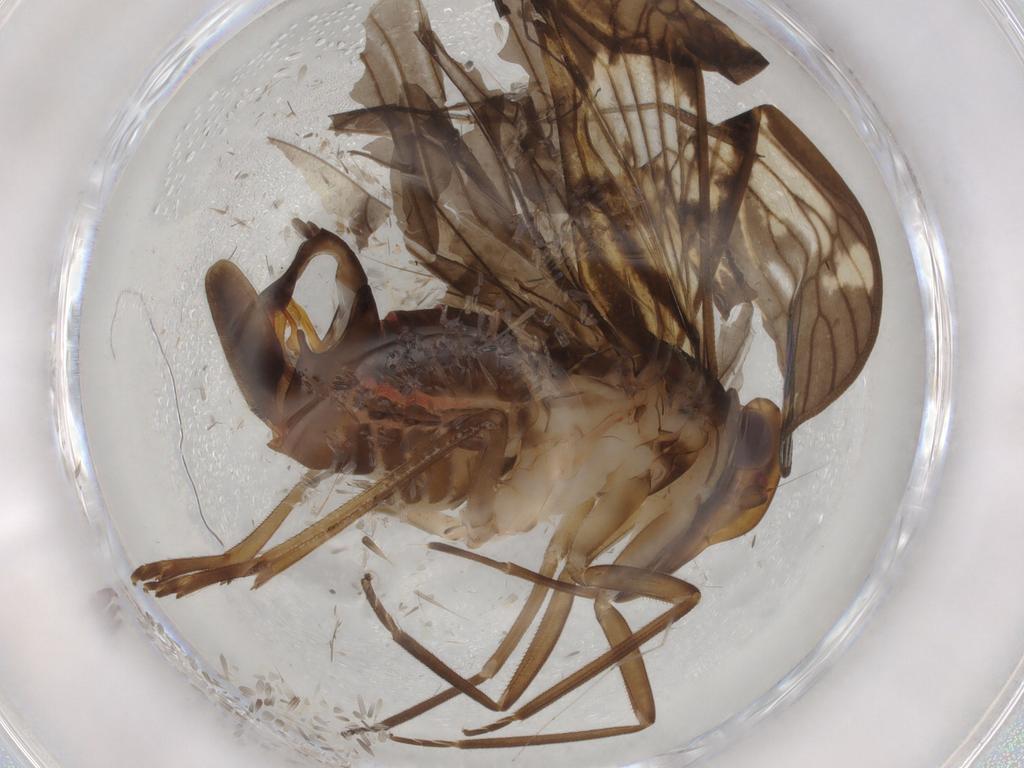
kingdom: Animalia
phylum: Arthropoda
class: Insecta
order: Hemiptera
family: Cixiidae
